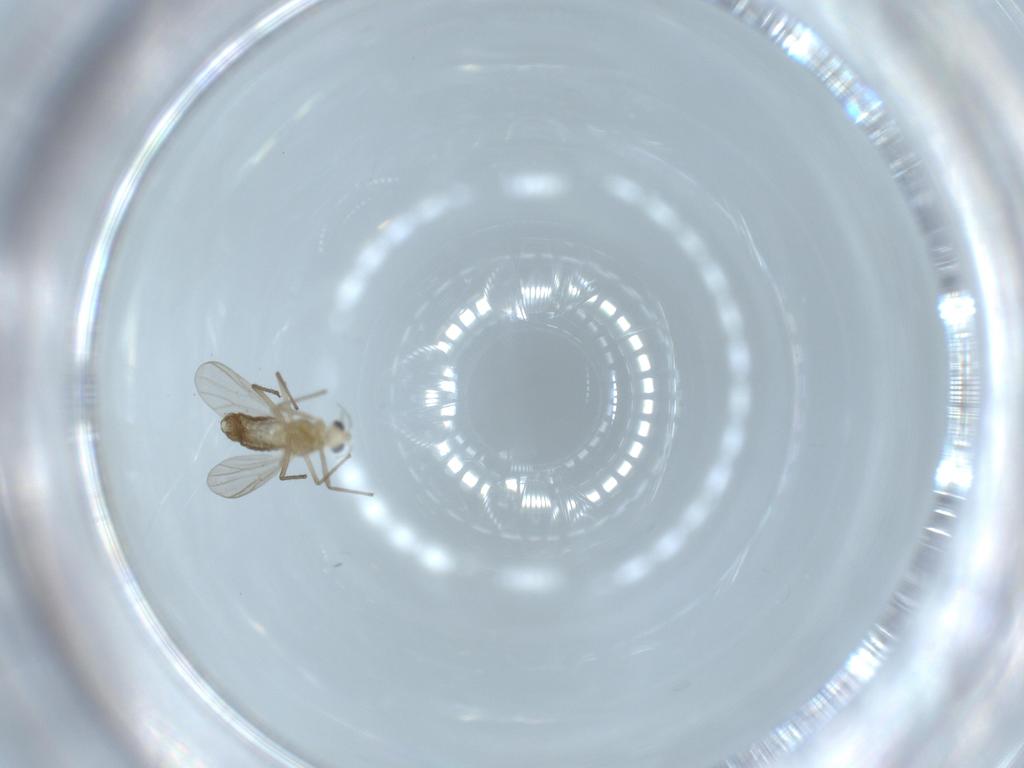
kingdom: Animalia
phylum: Arthropoda
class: Insecta
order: Diptera
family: Chironomidae
